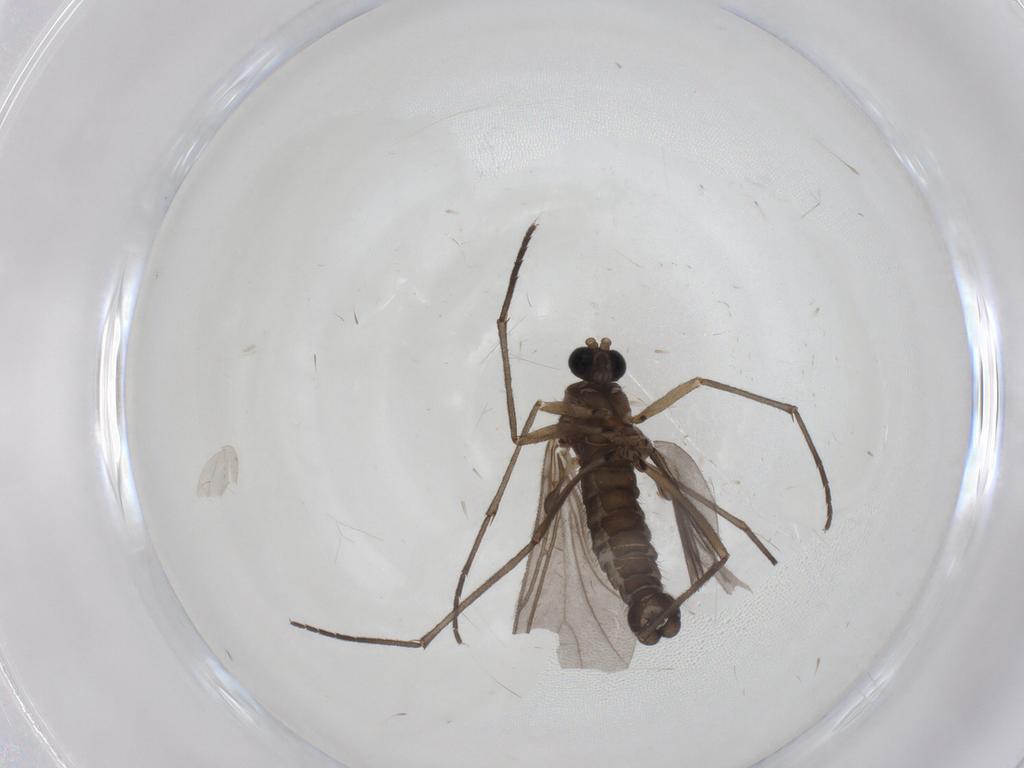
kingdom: Animalia
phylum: Arthropoda
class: Insecta
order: Diptera
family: Sciaridae
